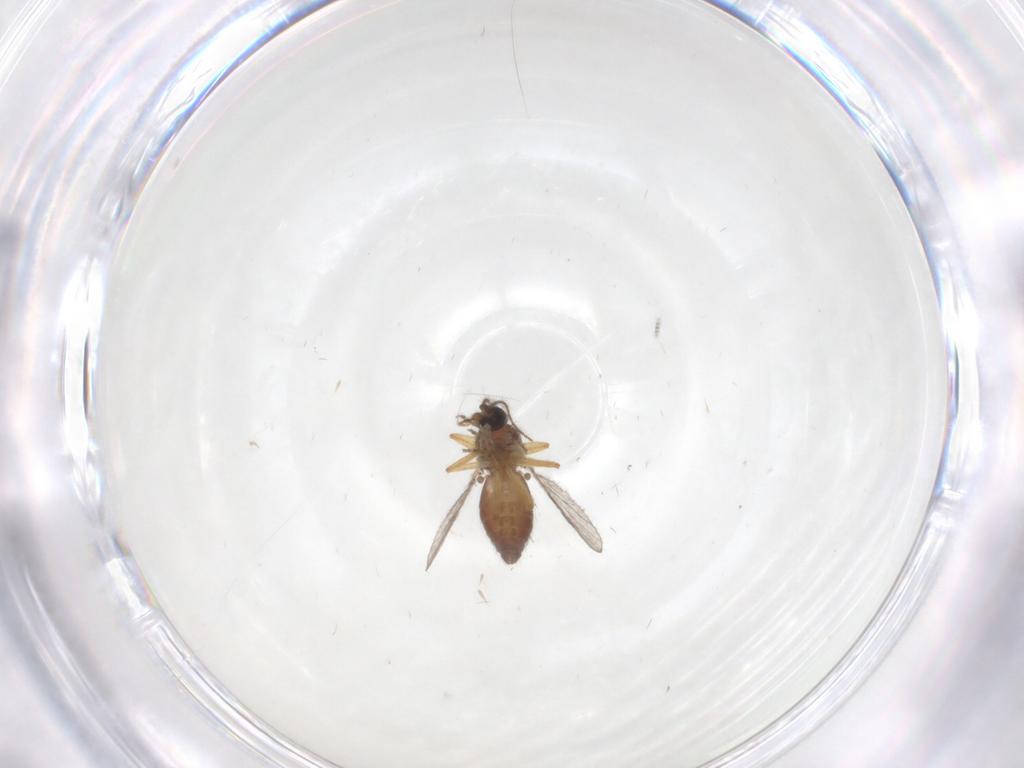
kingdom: Animalia
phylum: Arthropoda
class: Insecta
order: Diptera
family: Ceratopogonidae
